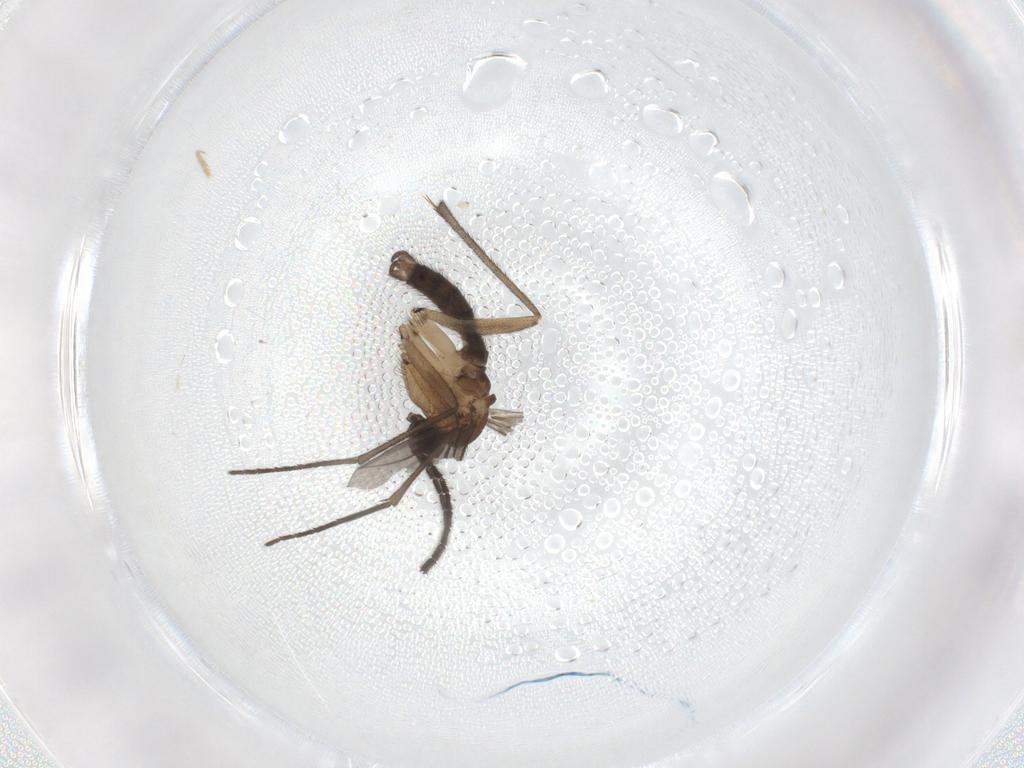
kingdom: Animalia
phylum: Arthropoda
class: Insecta
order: Diptera
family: Sciaridae
